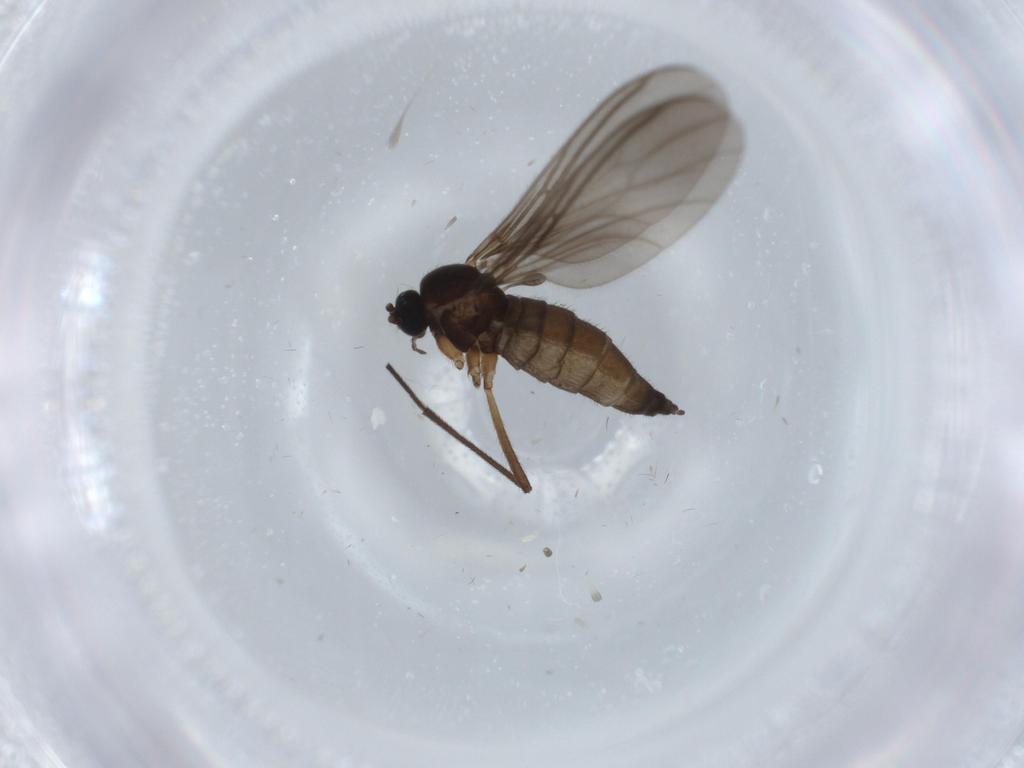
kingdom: Animalia
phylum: Arthropoda
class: Insecta
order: Diptera
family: Sciaridae
